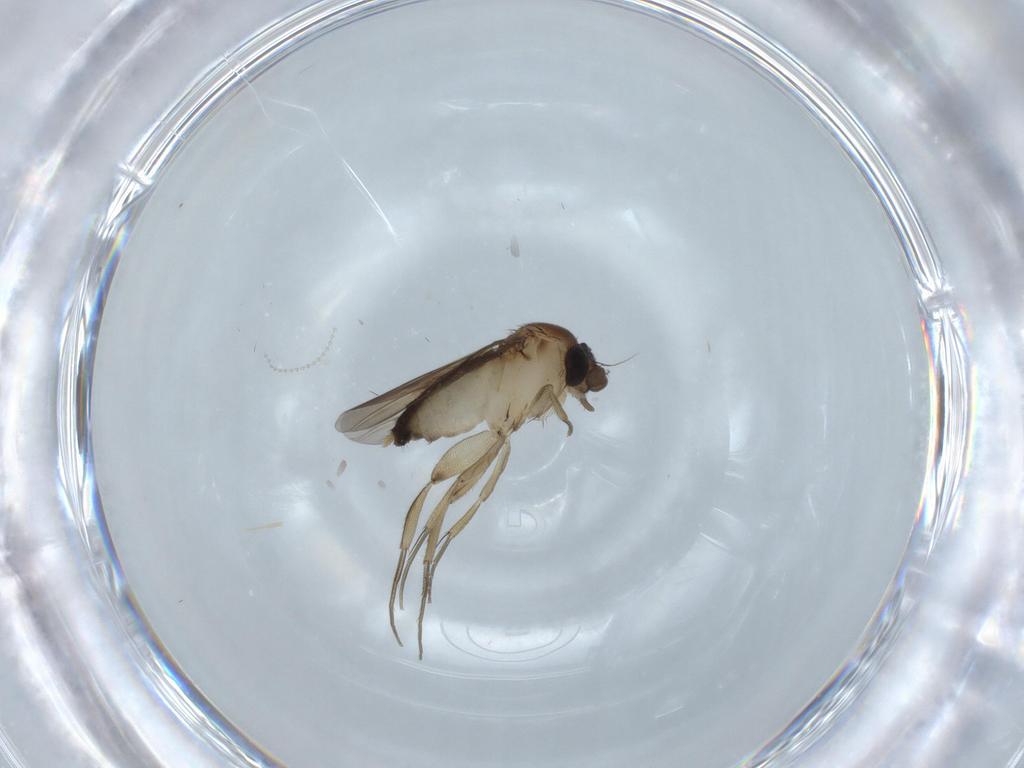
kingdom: Animalia
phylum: Arthropoda
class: Insecta
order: Diptera
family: Phoridae
